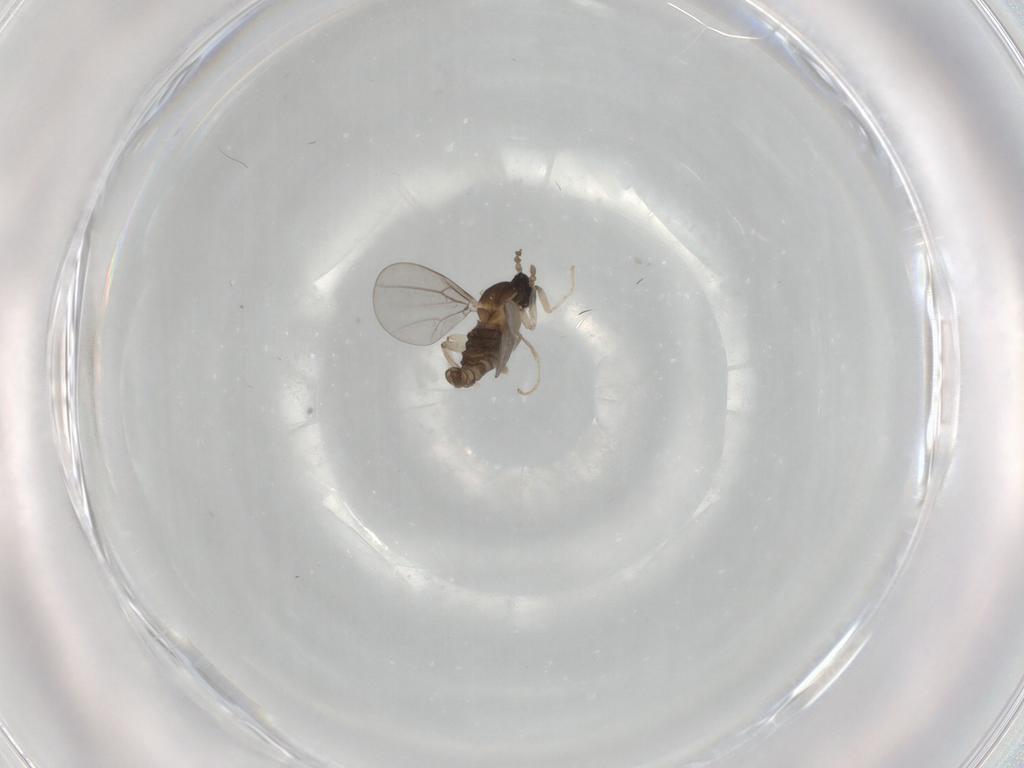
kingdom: Animalia
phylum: Arthropoda
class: Insecta
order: Diptera
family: Cecidomyiidae
